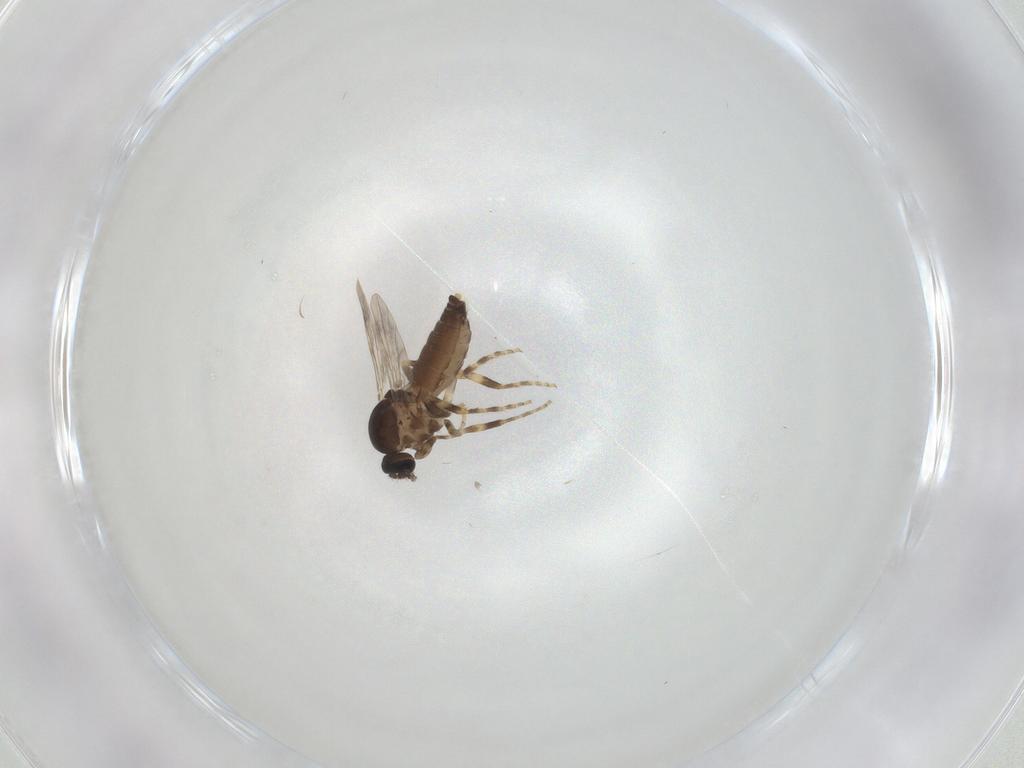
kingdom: Animalia
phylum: Arthropoda
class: Insecta
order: Diptera
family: Ceratopogonidae
